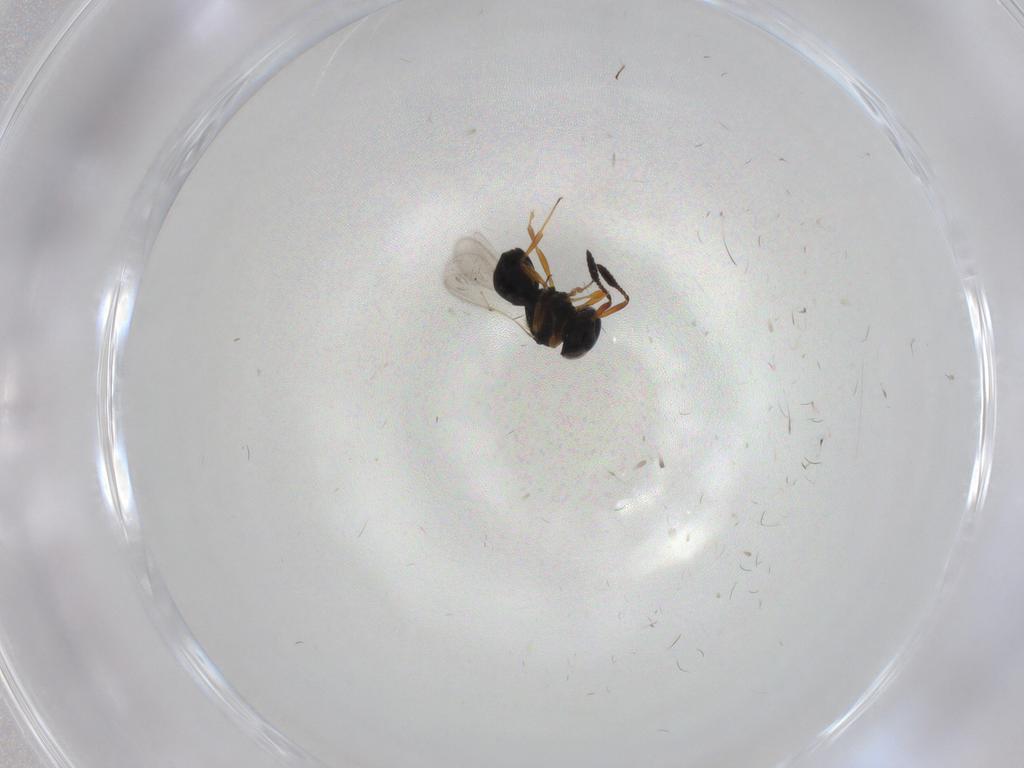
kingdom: Animalia
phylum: Arthropoda
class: Insecta
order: Hymenoptera
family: Scelionidae
